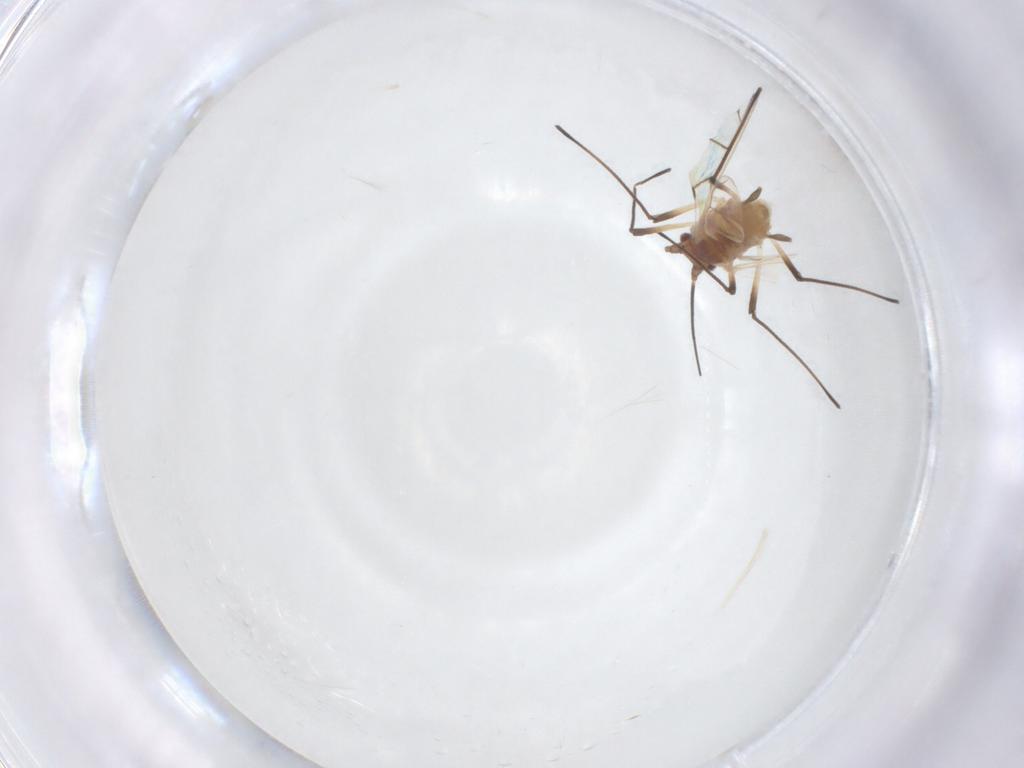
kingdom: Animalia
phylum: Arthropoda
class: Insecta
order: Hemiptera
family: Aphididae
